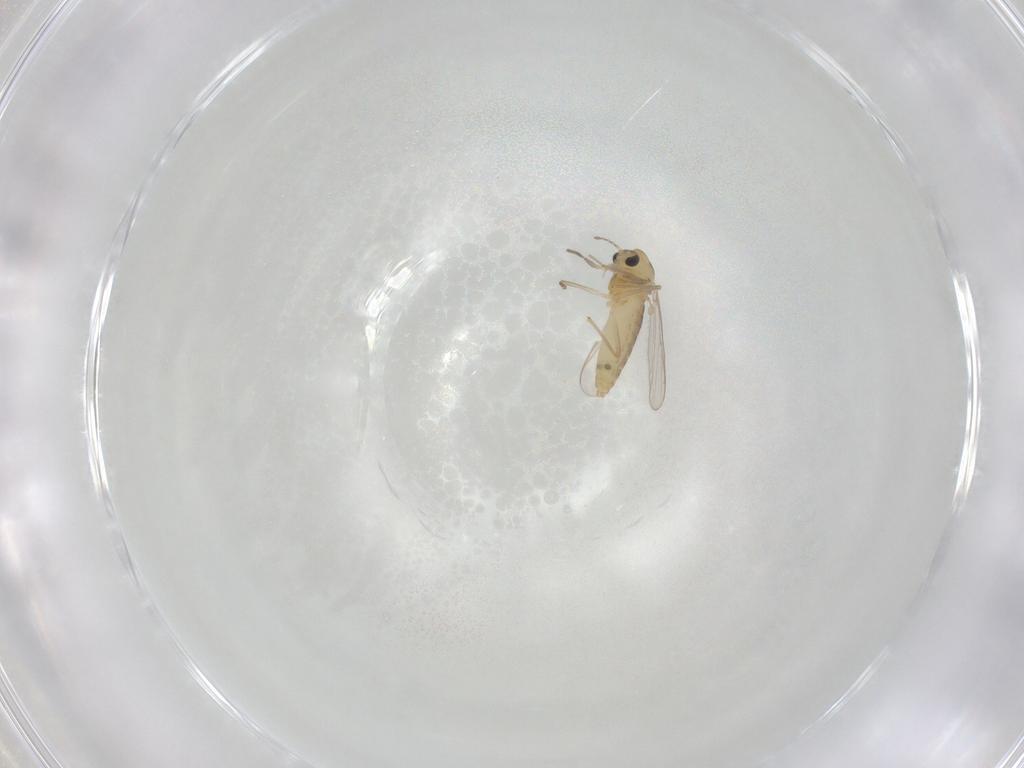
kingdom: Animalia
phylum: Arthropoda
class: Insecta
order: Diptera
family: Chironomidae
